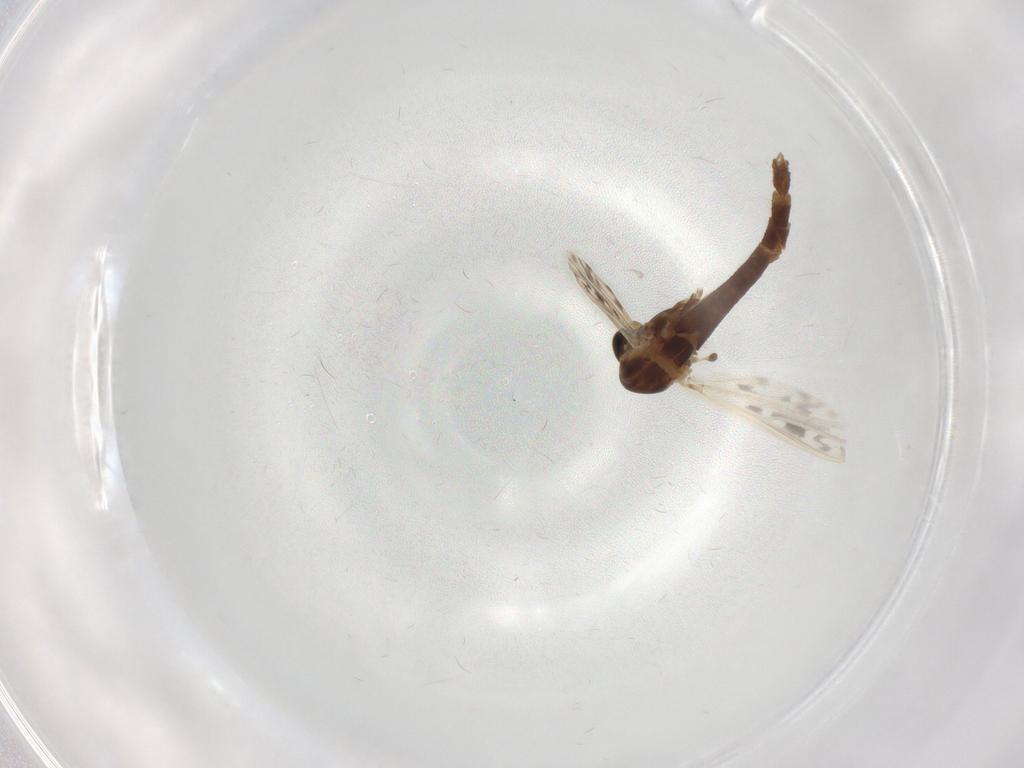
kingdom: Animalia
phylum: Arthropoda
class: Insecta
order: Diptera
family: Chironomidae
